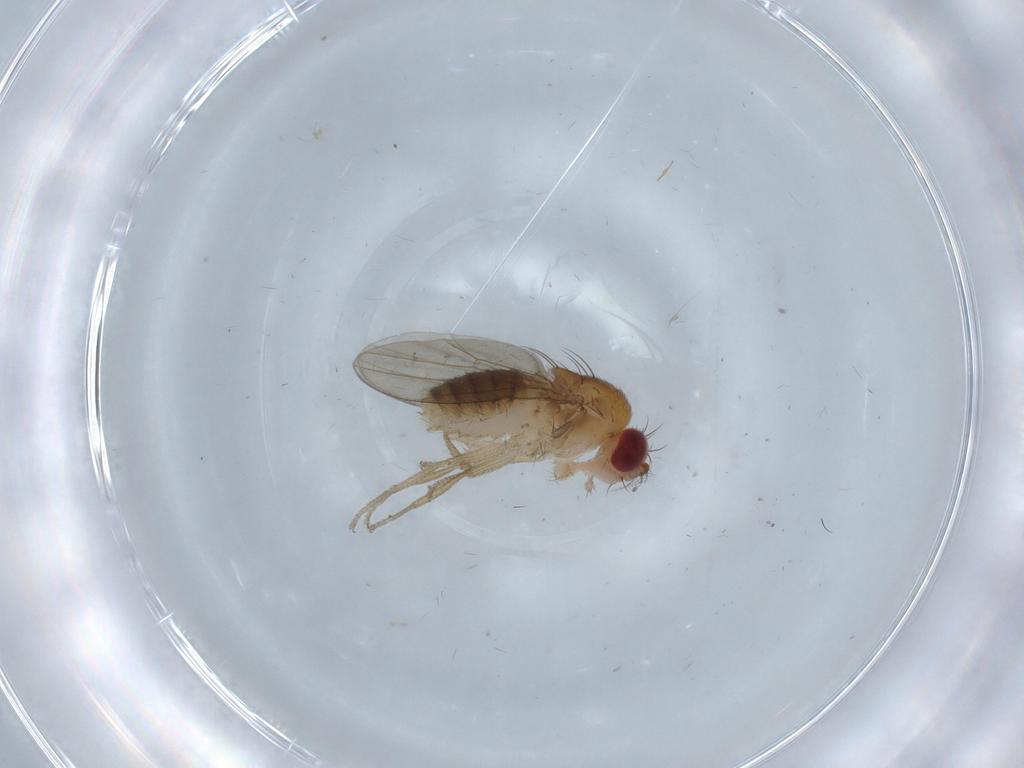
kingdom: Animalia
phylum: Arthropoda
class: Insecta
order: Diptera
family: Drosophilidae
